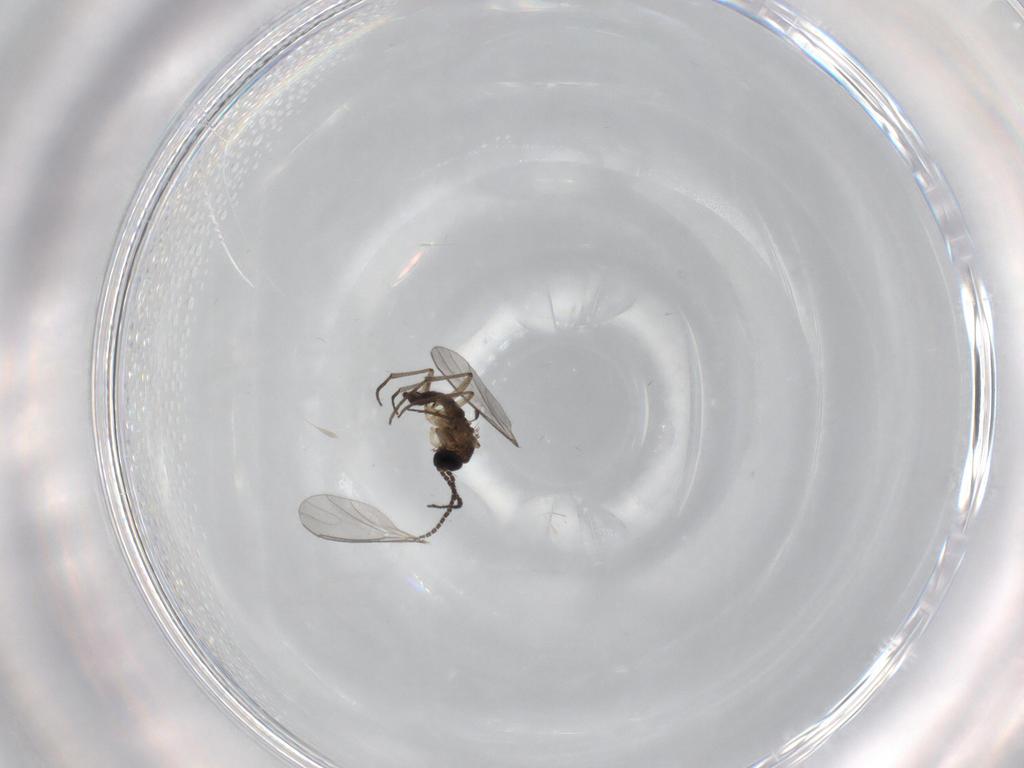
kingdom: Animalia
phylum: Arthropoda
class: Insecta
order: Diptera
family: Sciaridae
